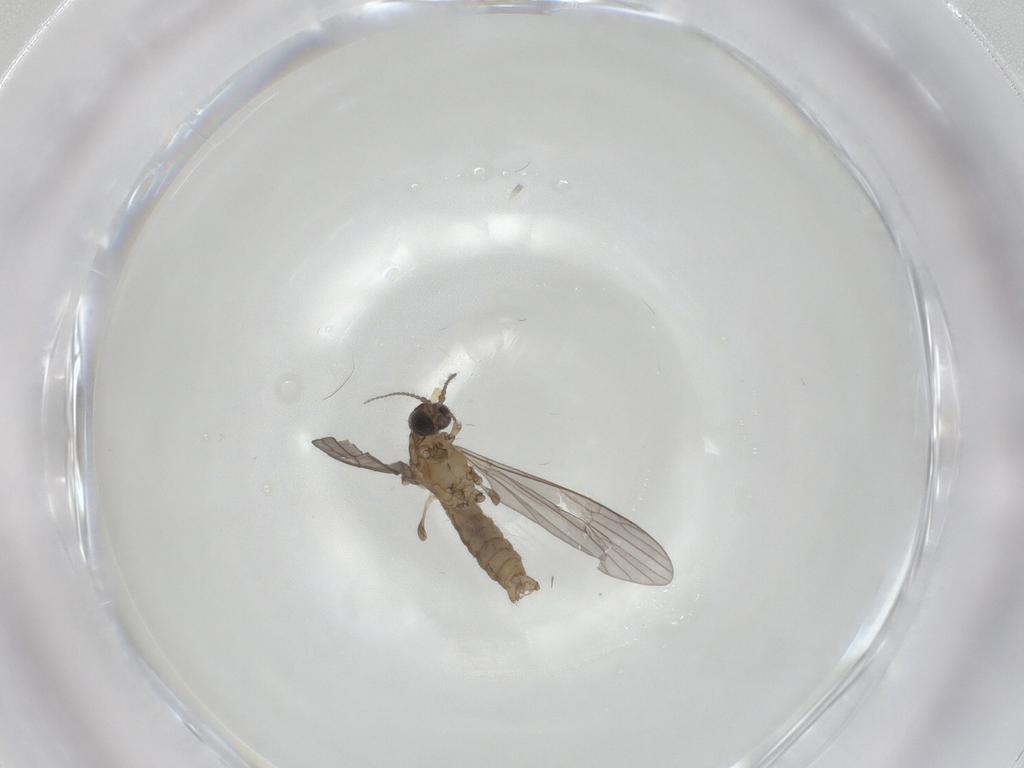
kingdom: Animalia
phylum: Arthropoda
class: Insecta
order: Diptera
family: Limoniidae
